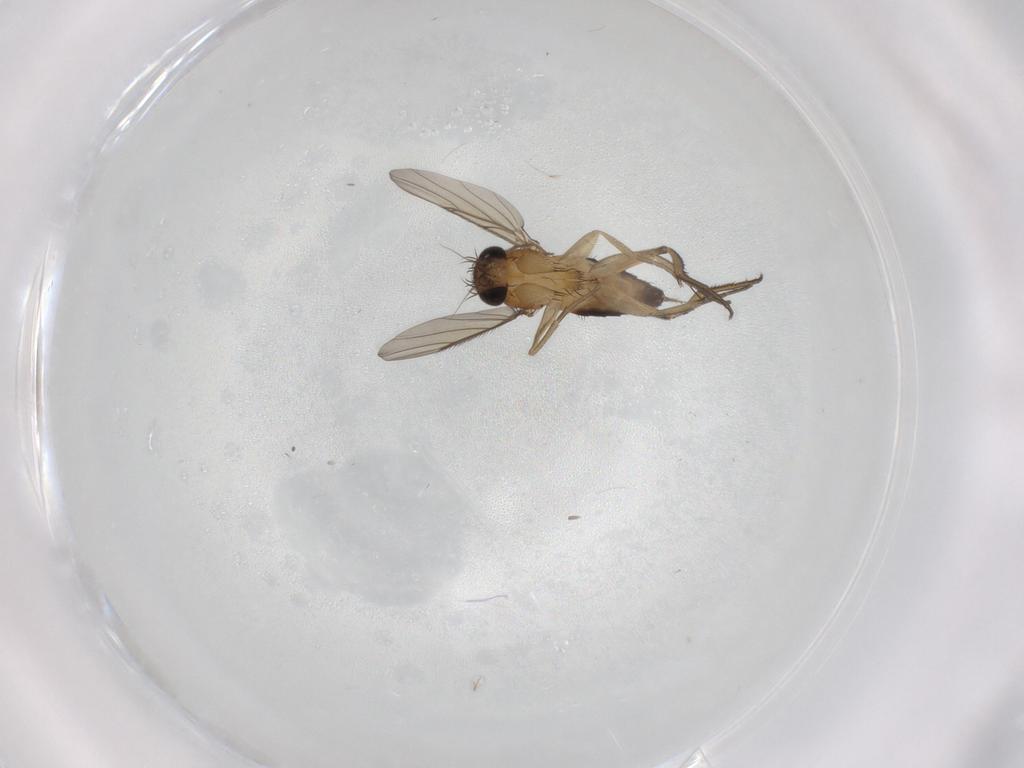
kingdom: Animalia
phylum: Arthropoda
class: Insecta
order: Diptera
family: Phoridae
